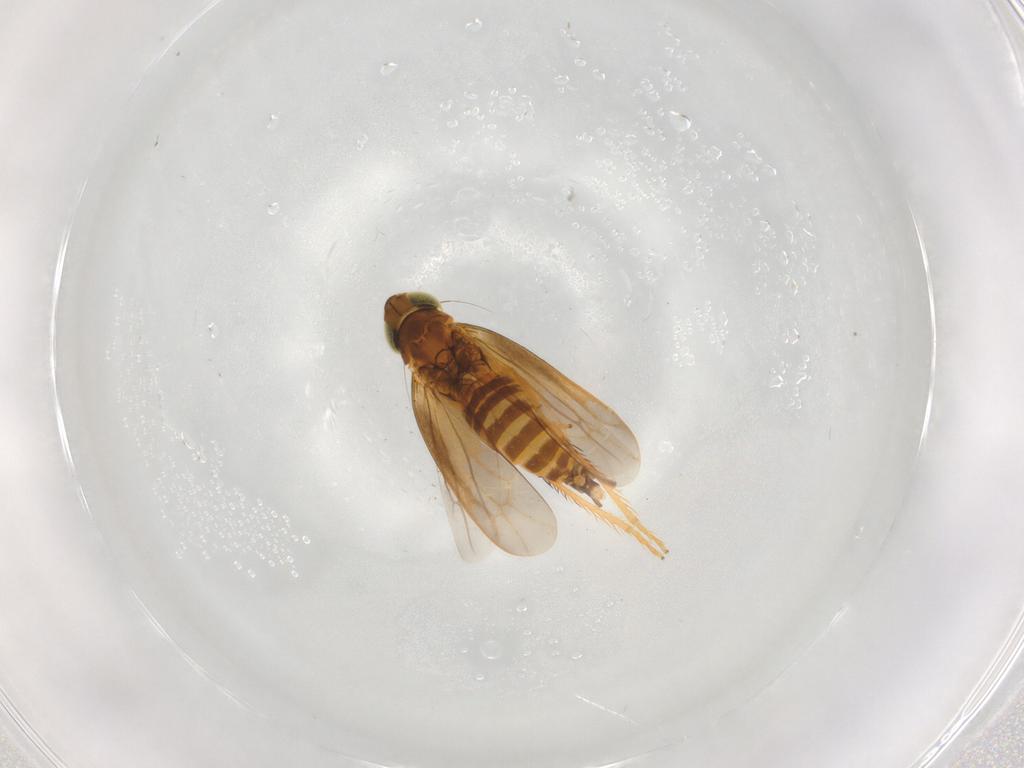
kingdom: Animalia
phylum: Arthropoda
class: Insecta
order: Hemiptera
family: Cicadellidae
